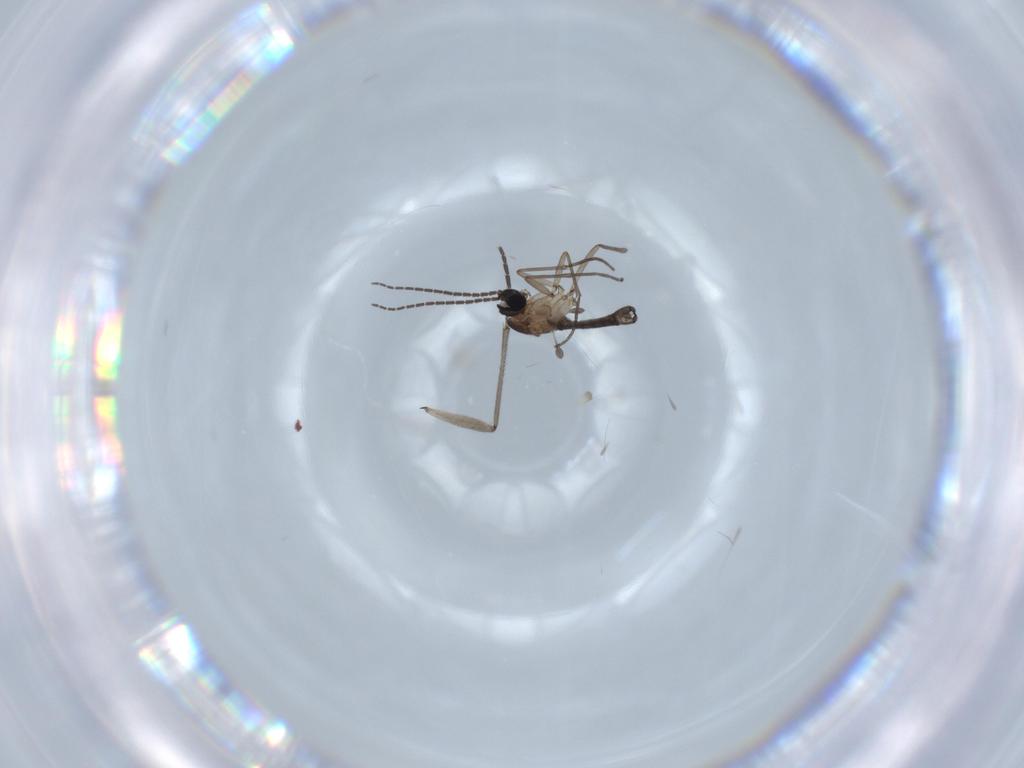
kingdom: Animalia
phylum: Arthropoda
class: Insecta
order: Diptera
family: Sciaridae
